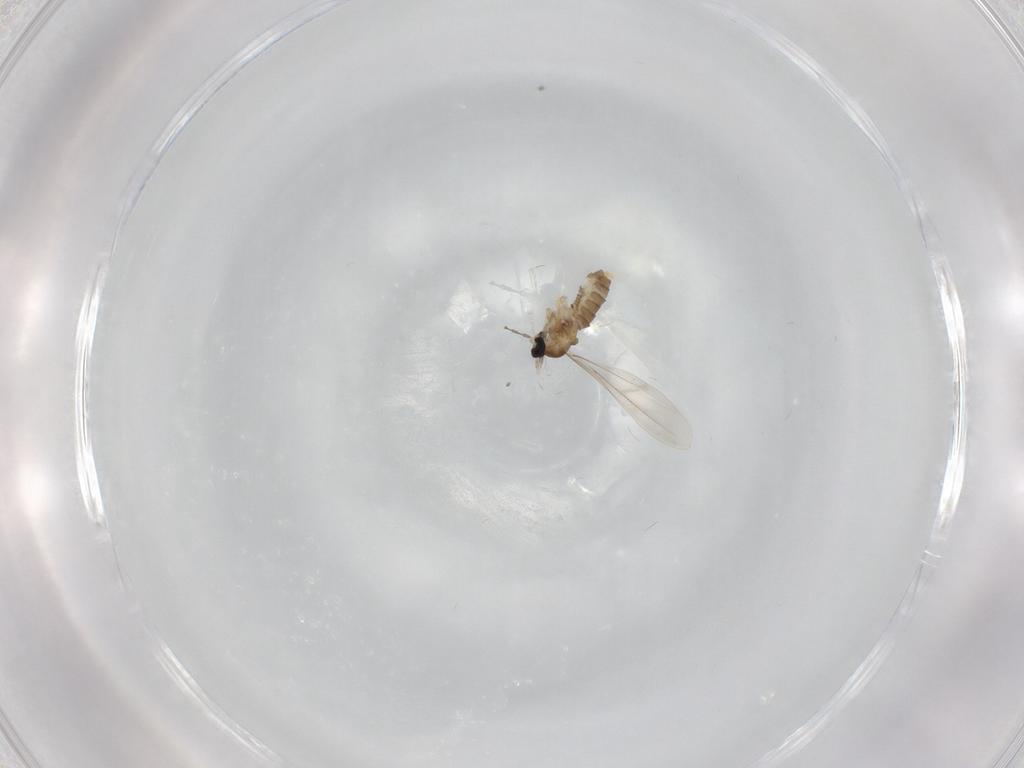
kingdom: Animalia
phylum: Arthropoda
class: Insecta
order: Diptera
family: Cecidomyiidae
